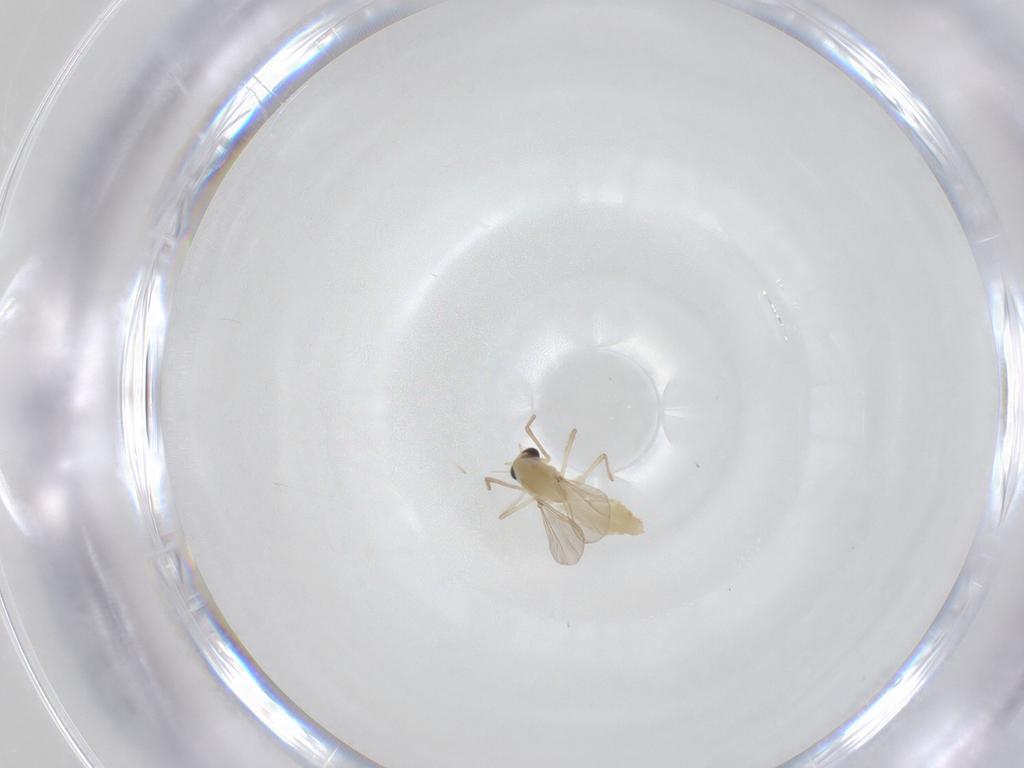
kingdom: Animalia
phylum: Arthropoda
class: Insecta
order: Diptera
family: Chironomidae
